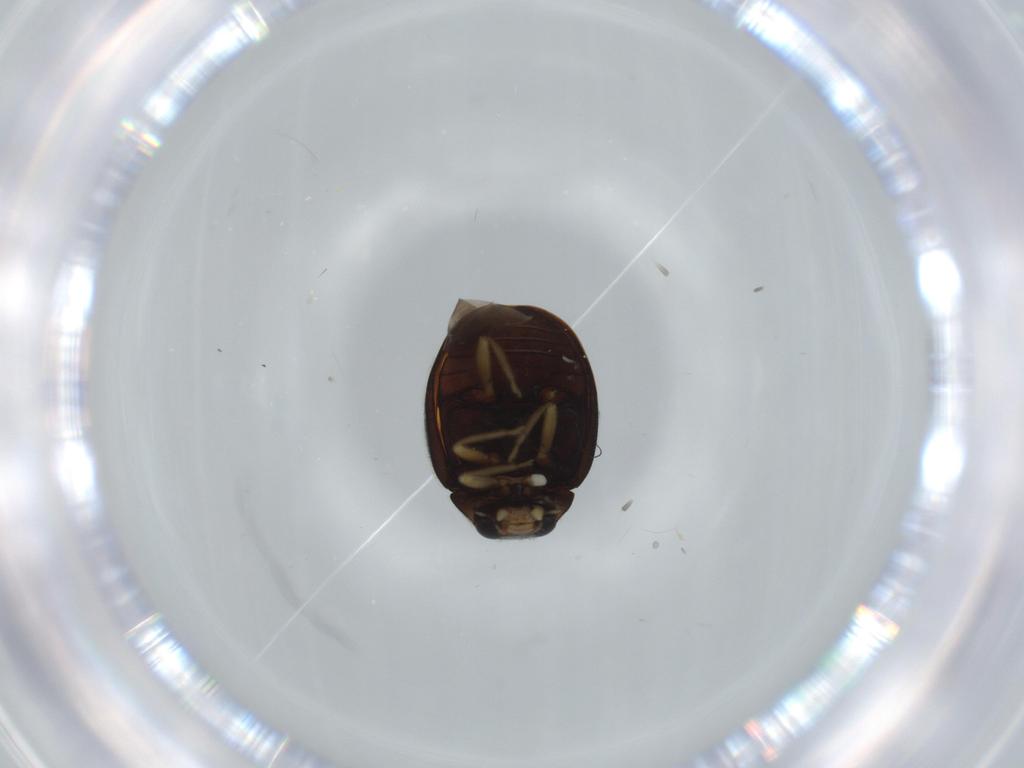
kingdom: Animalia
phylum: Arthropoda
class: Insecta
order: Coleoptera
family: Coccinellidae
